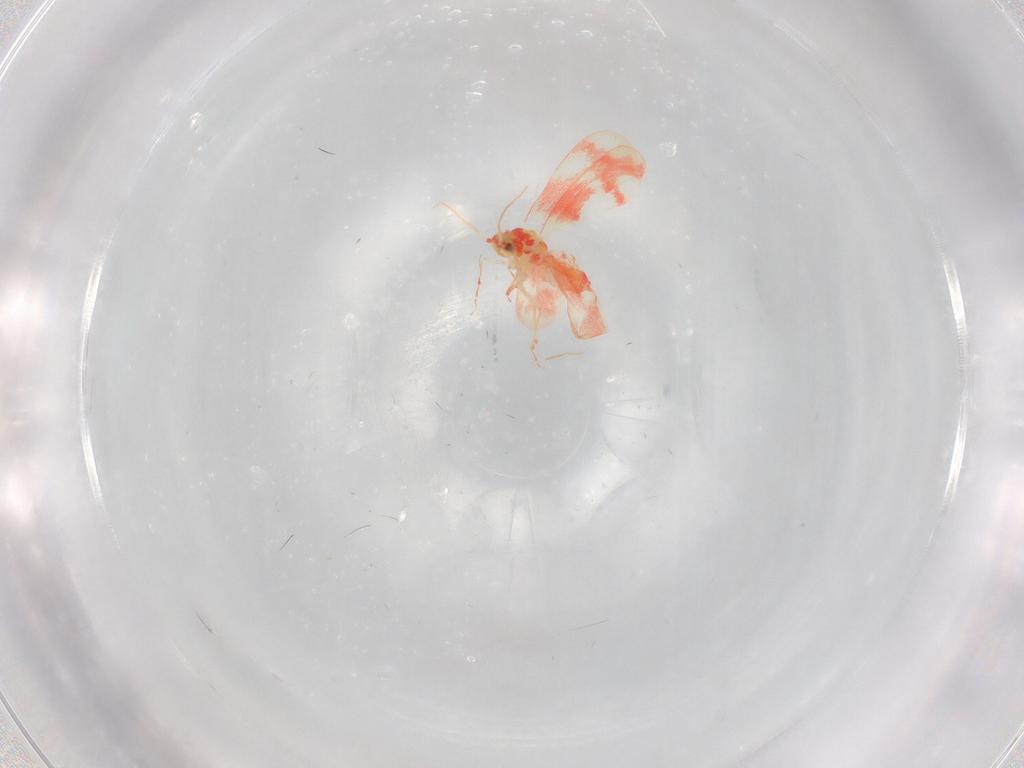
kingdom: Animalia
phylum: Arthropoda
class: Insecta
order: Hemiptera
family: Aleyrodidae
